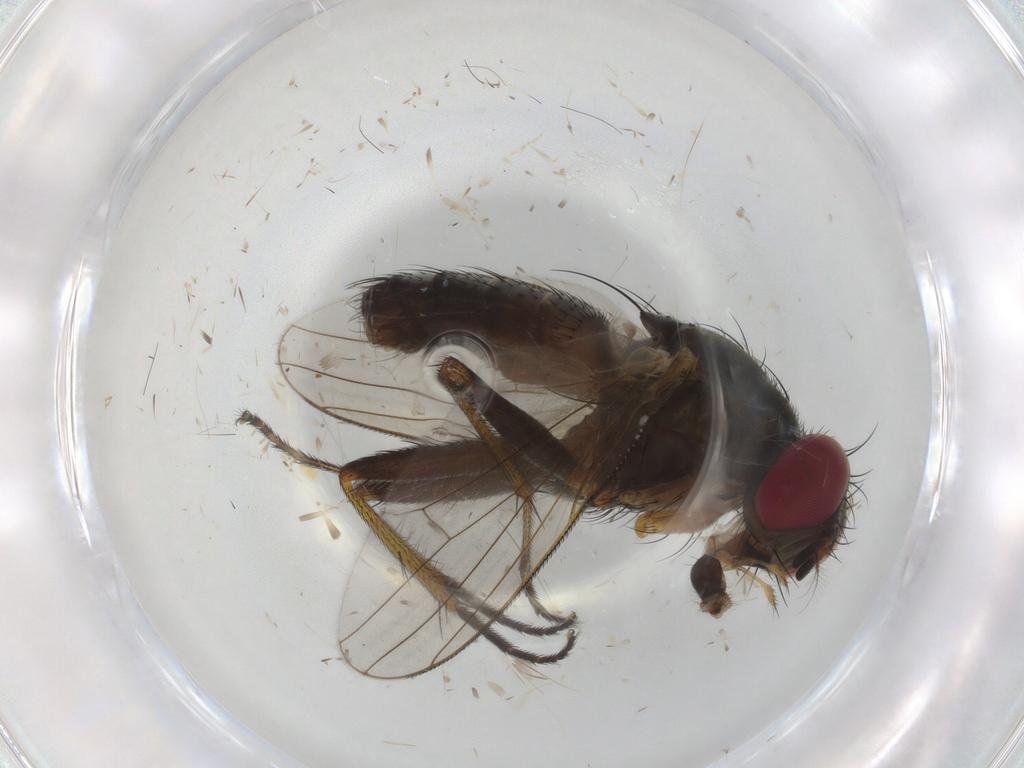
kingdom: Animalia
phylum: Arthropoda
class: Insecta
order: Diptera
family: Muscidae
